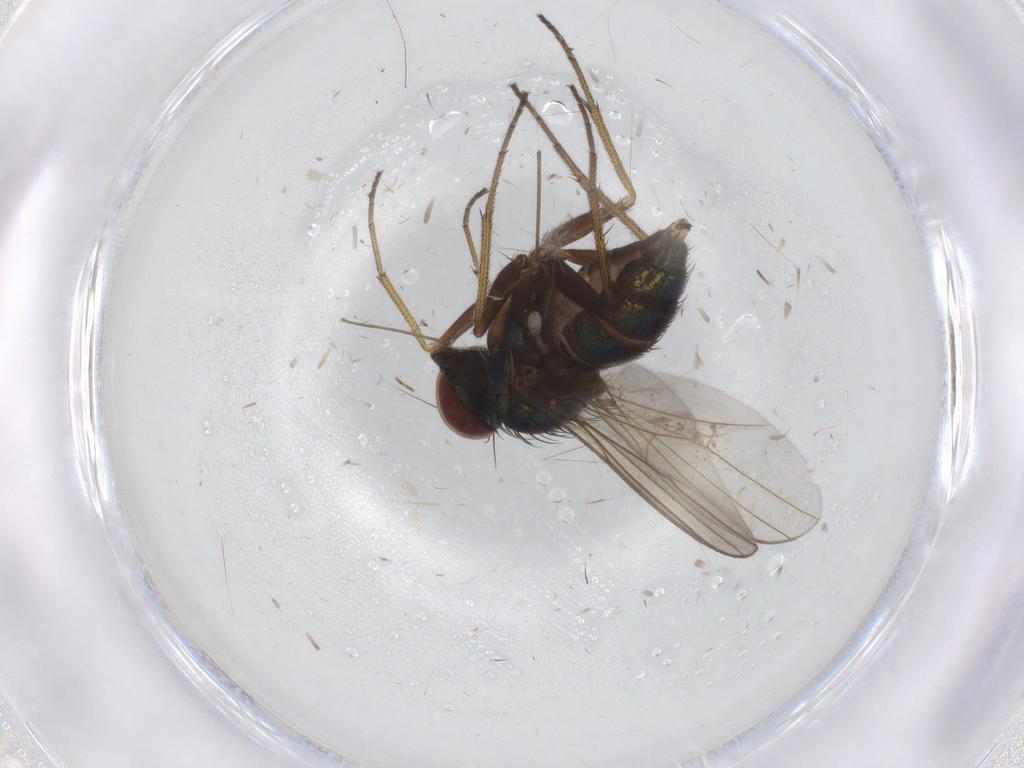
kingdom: Animalia
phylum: Arthropoda
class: Insecta
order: Diptera
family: Dolichopodidae
